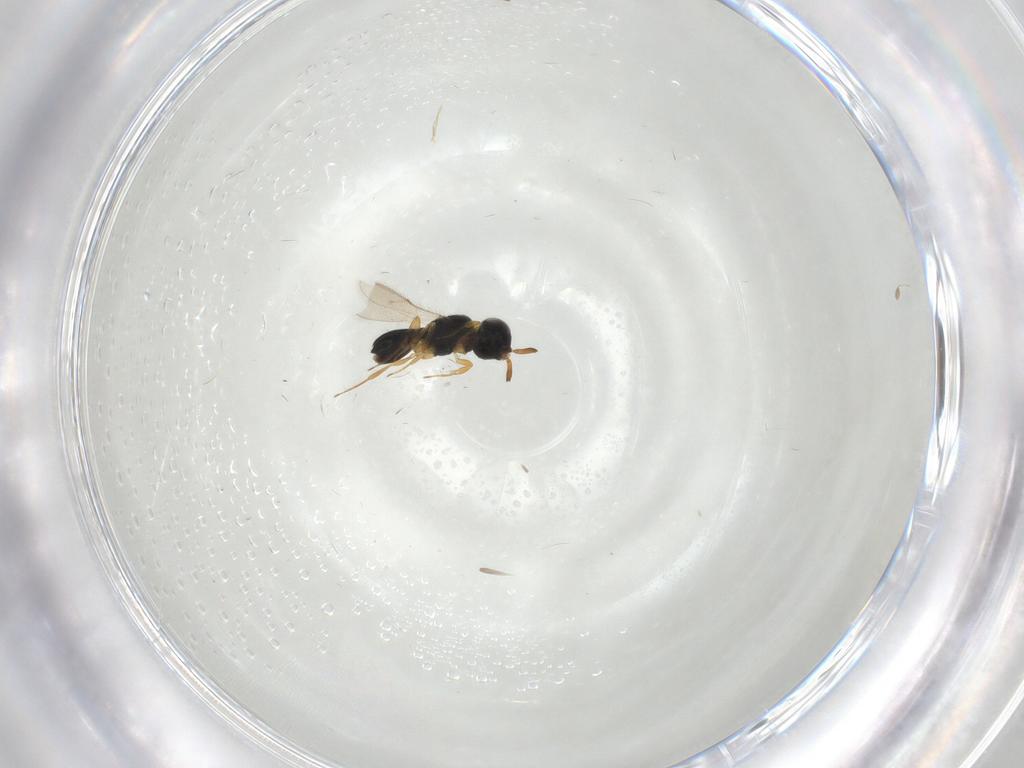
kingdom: Animalia
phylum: Arthropoda
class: Insecta
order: Hymenoptera
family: Scelionidae
